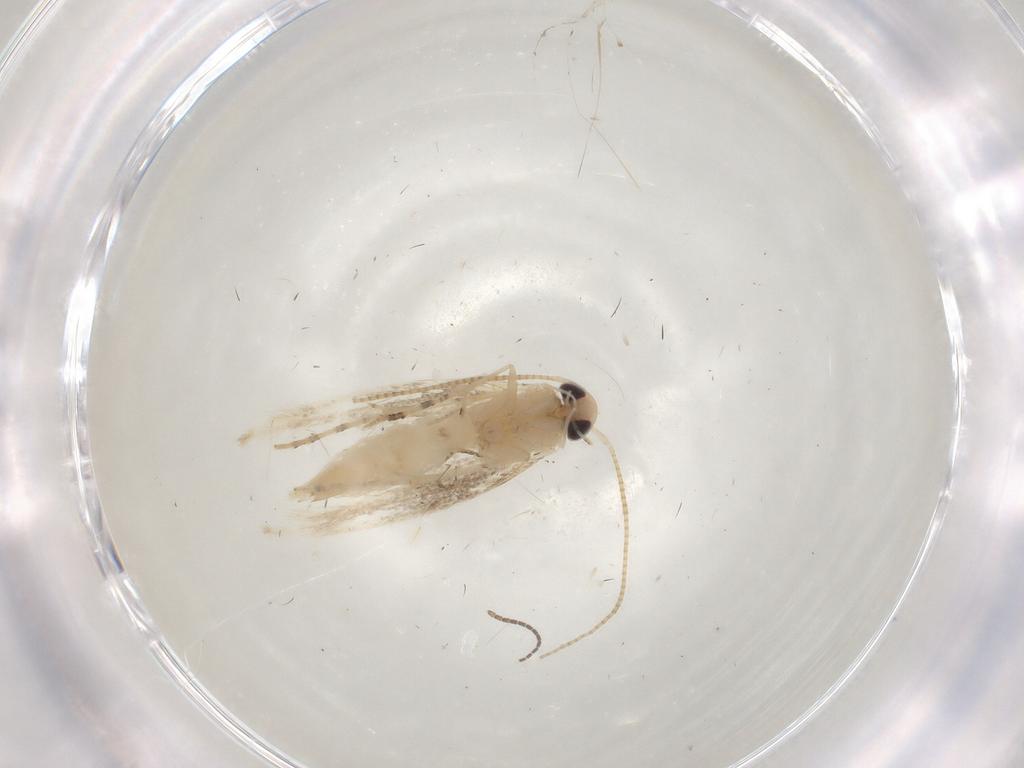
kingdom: Animalia
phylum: Arthropoda
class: Insecta
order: Lepidoptera
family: Gracillariidae
